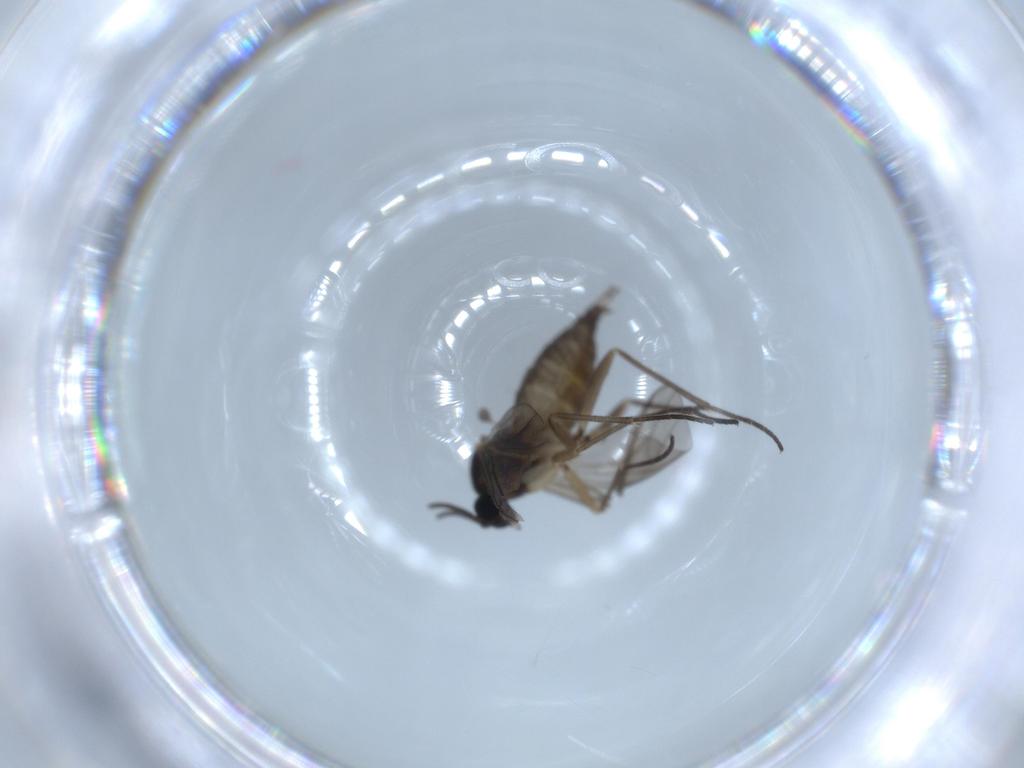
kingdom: Animalia
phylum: Arthropoda
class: Insecta
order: Diptera
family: Sciaridae
